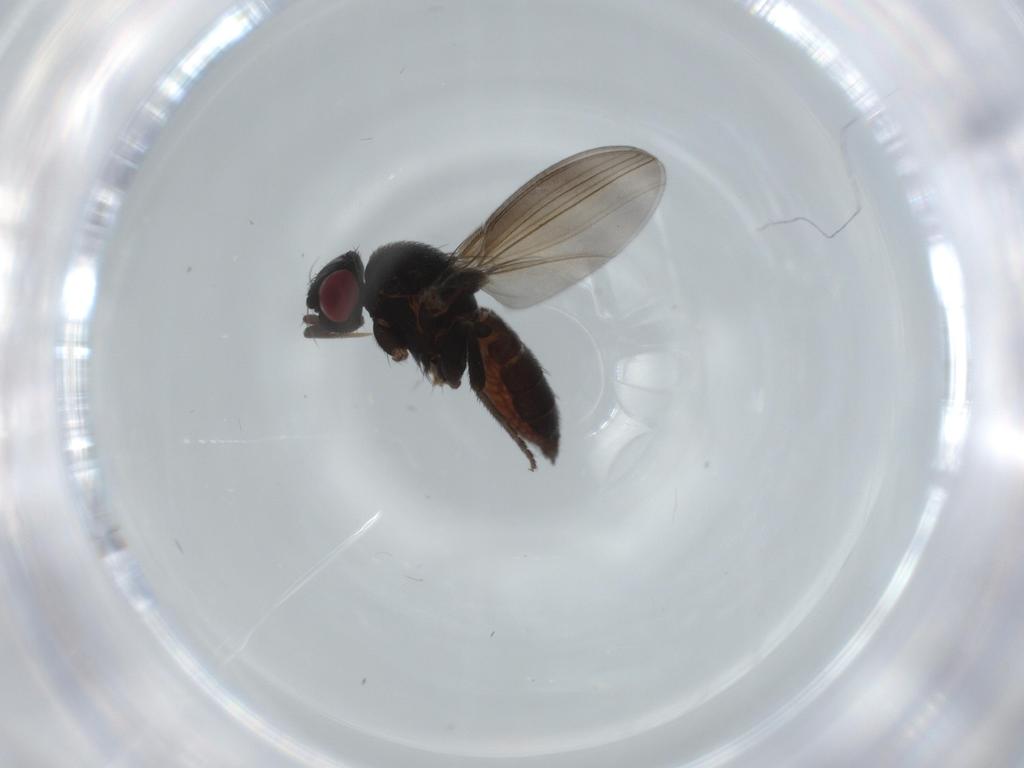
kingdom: Animalia
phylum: Arthropoda
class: Insecta
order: Diptera
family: Milichiidae
